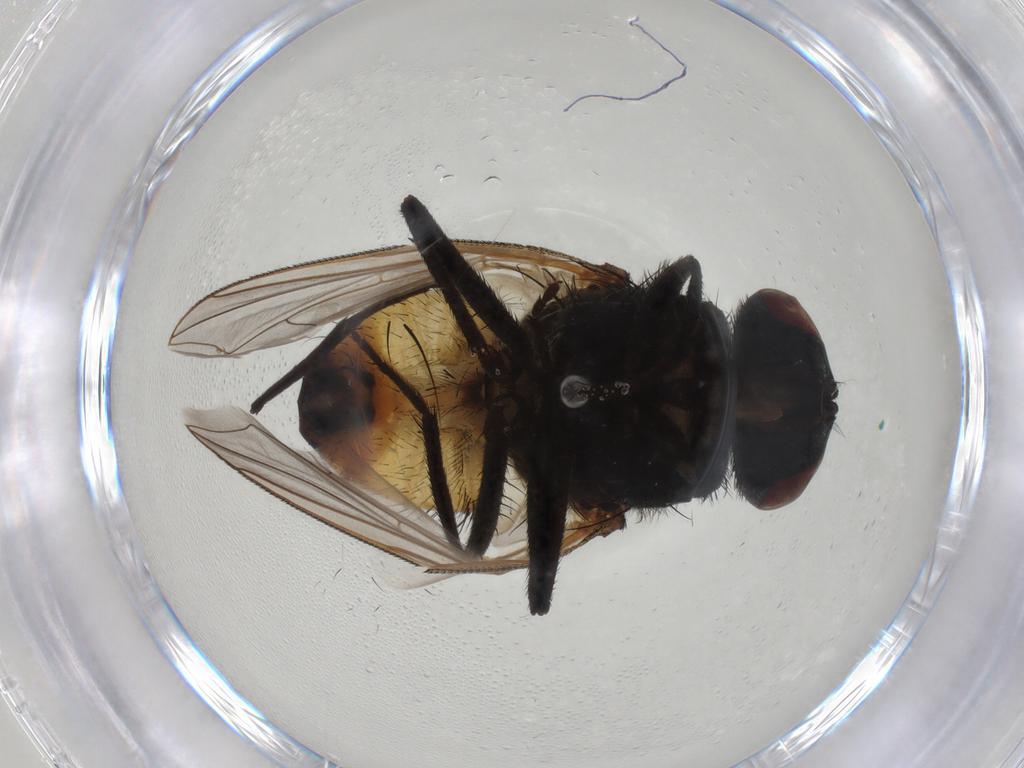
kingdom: Animalia
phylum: Arthropoda
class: Insecta
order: Diptera
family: Muscidae
